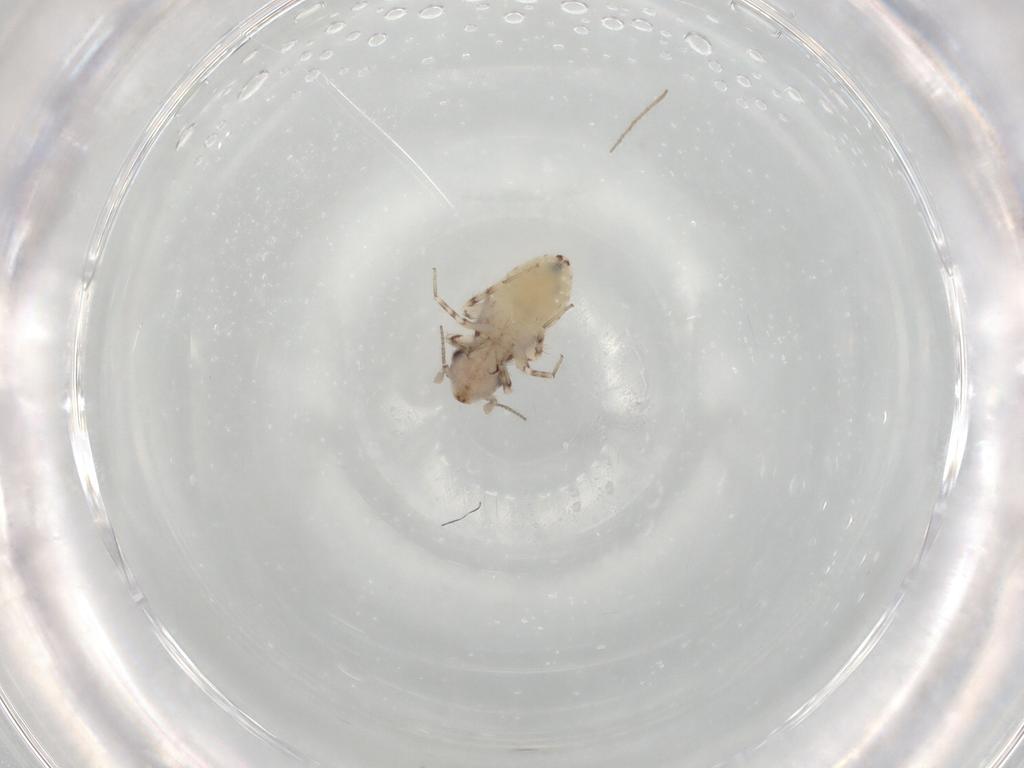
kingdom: Animalia
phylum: Arthropoda
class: Insecta
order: Psocodea
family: Lepidopsocidae
